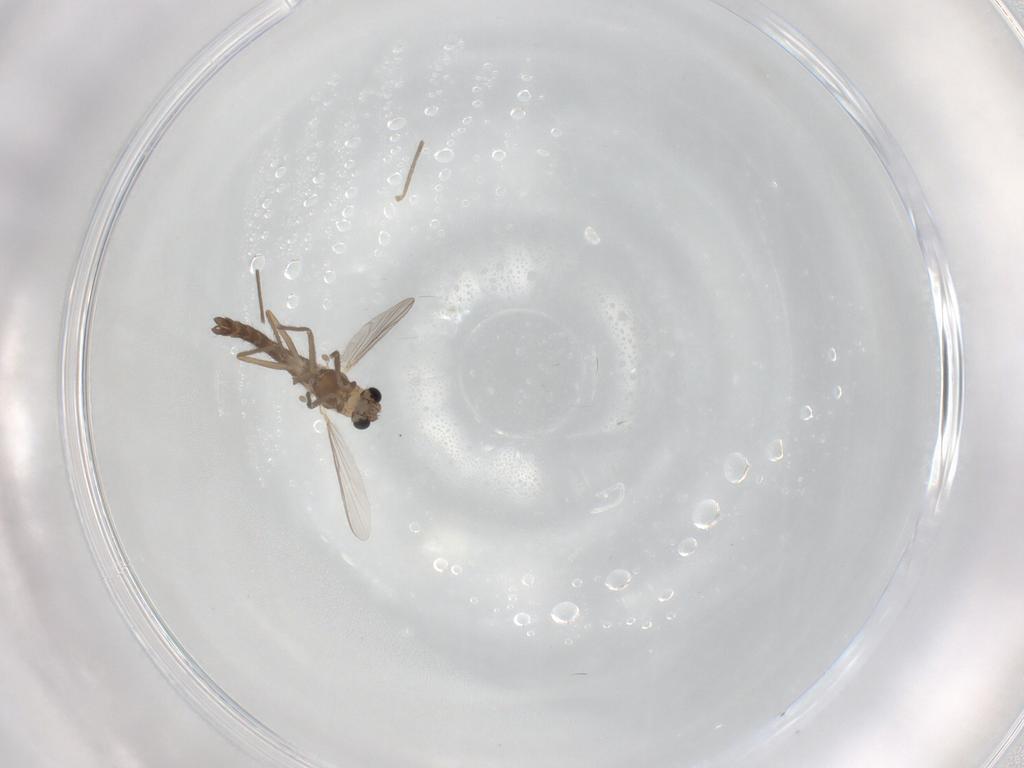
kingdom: Animalia
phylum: Arthropoda
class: Insecta
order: Diptera
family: Chironomidae
